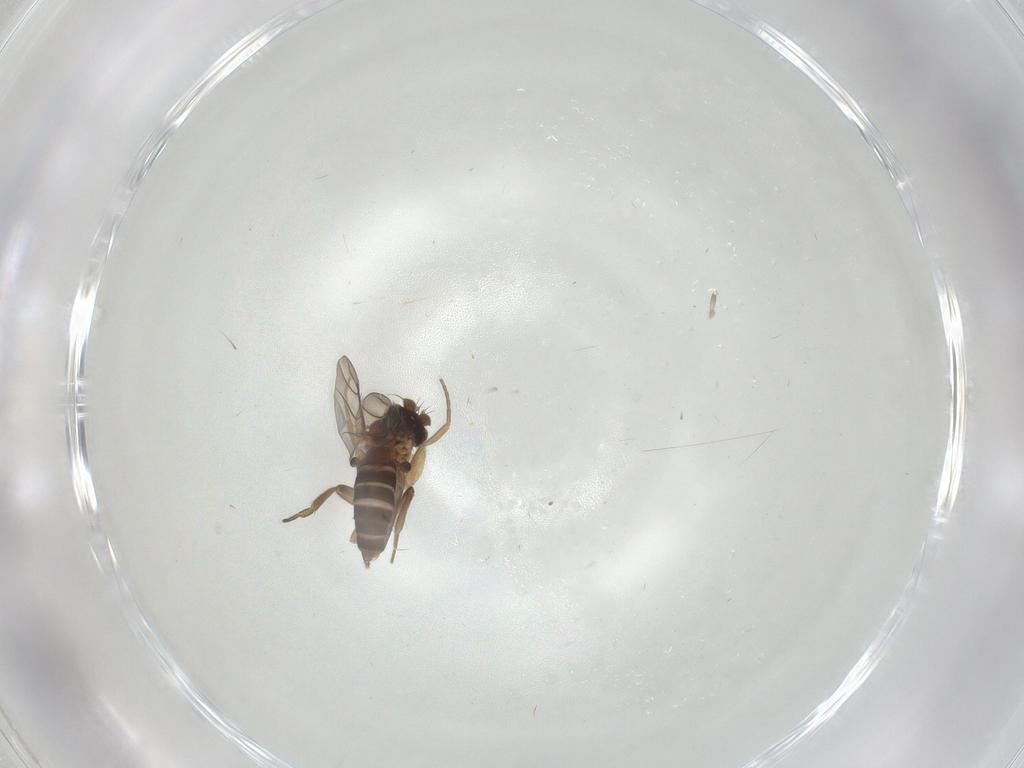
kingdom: Animalia
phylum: Arthropoda
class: Insecta
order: Diptera
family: Phoridae
